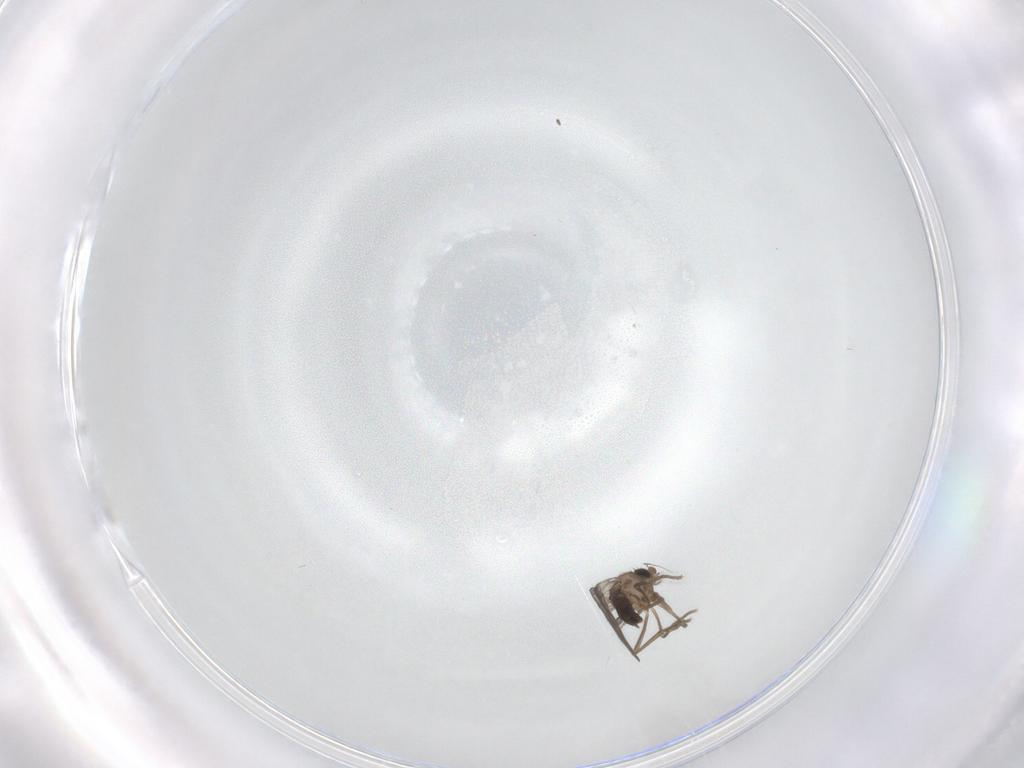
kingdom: Animalia
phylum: Arthropoda
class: Insecta
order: Diptera
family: Phoridae
